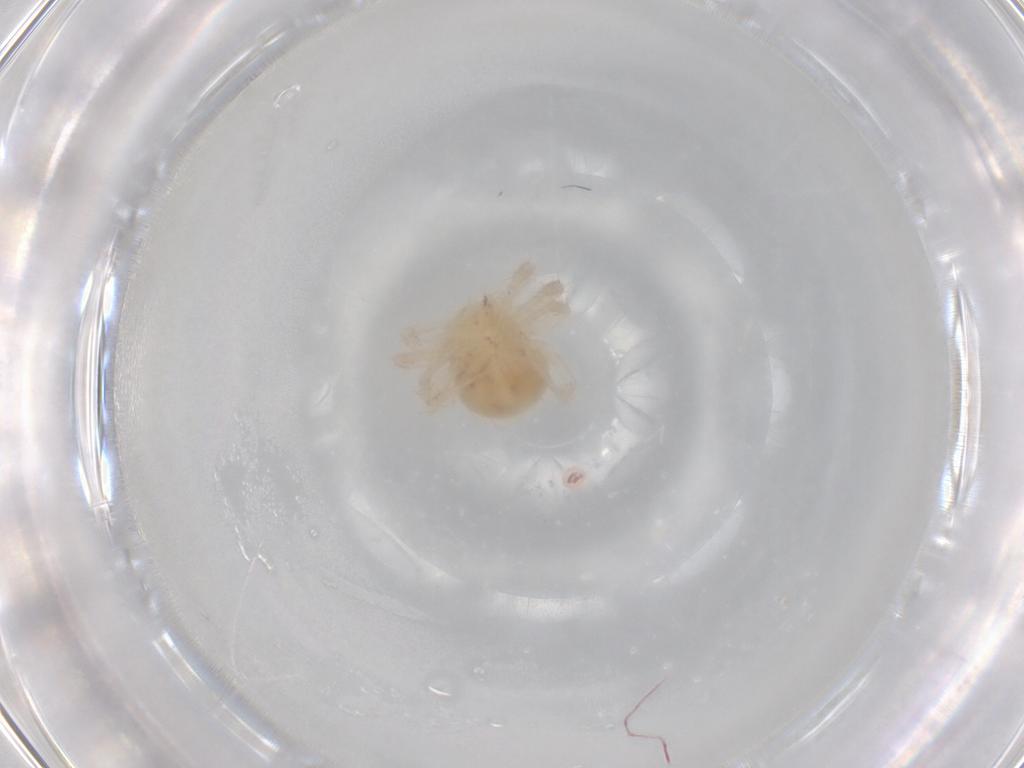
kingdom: Animalia
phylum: Arthropoda
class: Arachnida
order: Trombidiformes
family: Anystidae
